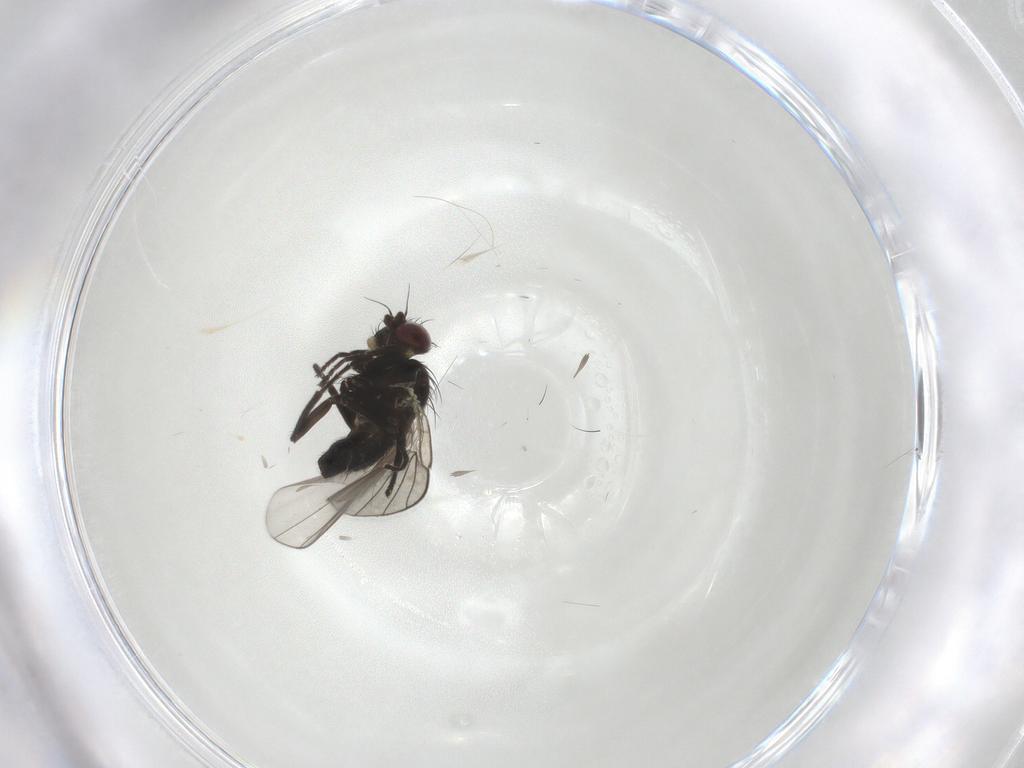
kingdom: Animalia
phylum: Arthropoda
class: Insecta
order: Diptera
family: Agromyzidae
